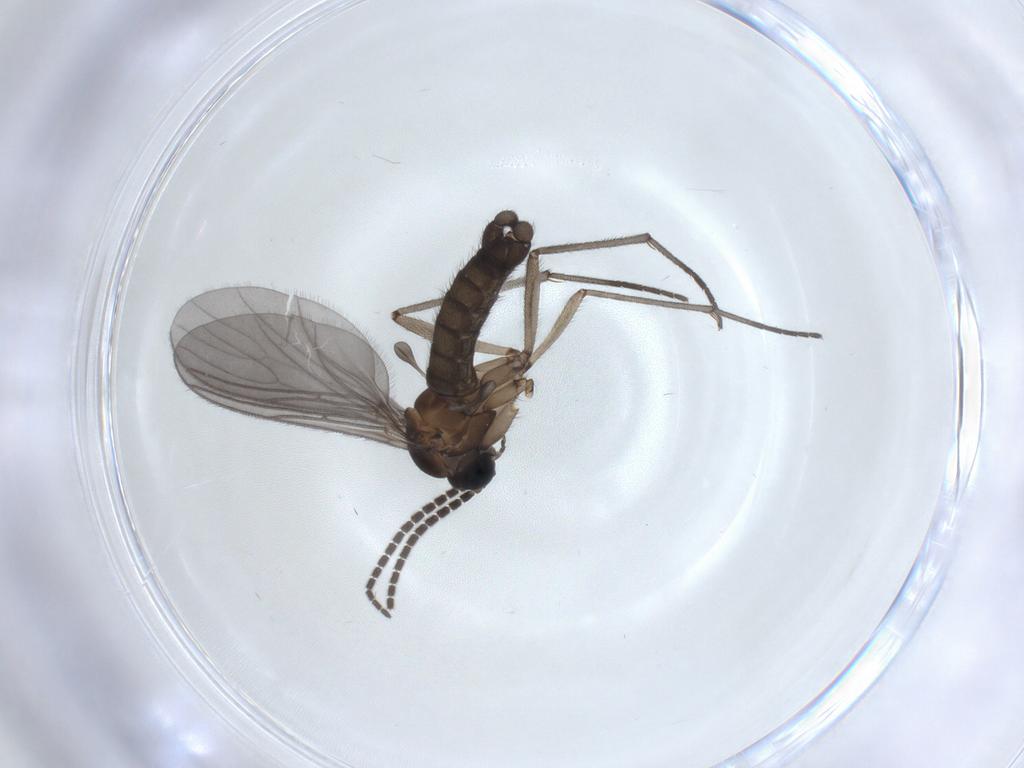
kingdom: Animalia
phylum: Arthropoda
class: Insecta
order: Diptera
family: Sciaridae
